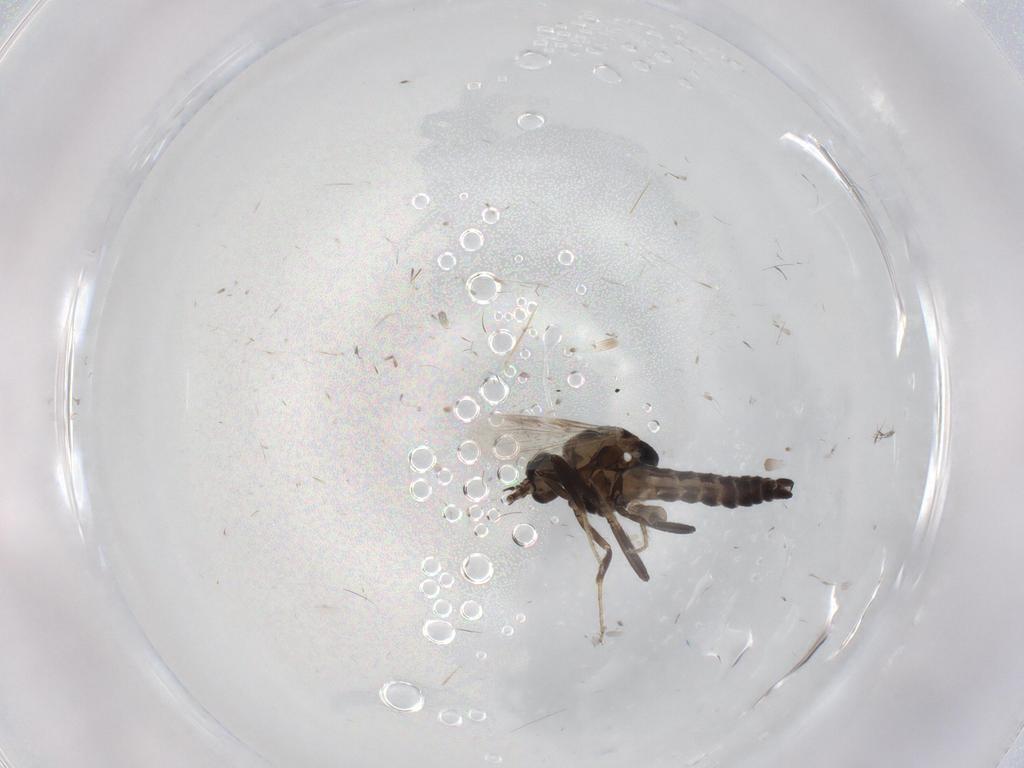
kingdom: Animalia
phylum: Arthropoda
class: Insecta
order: Diptera
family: Ceratopogonidae
